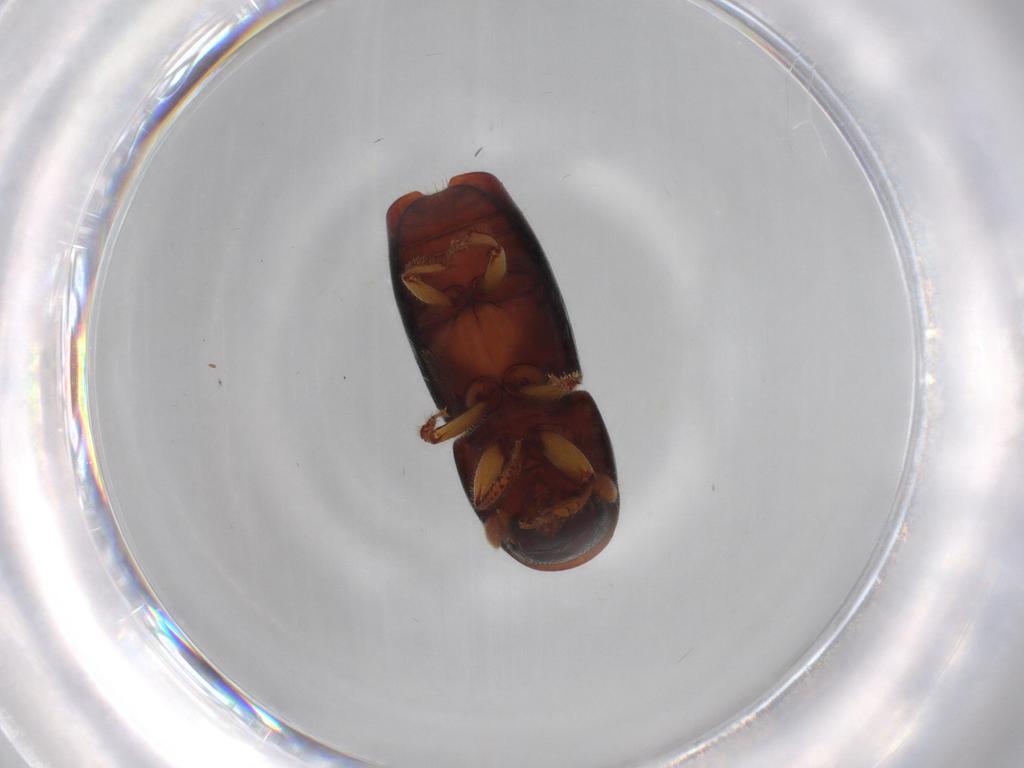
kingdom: Animalia
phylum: Arthropoda
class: Insecta
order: Coleoptera
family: Curculionidae
